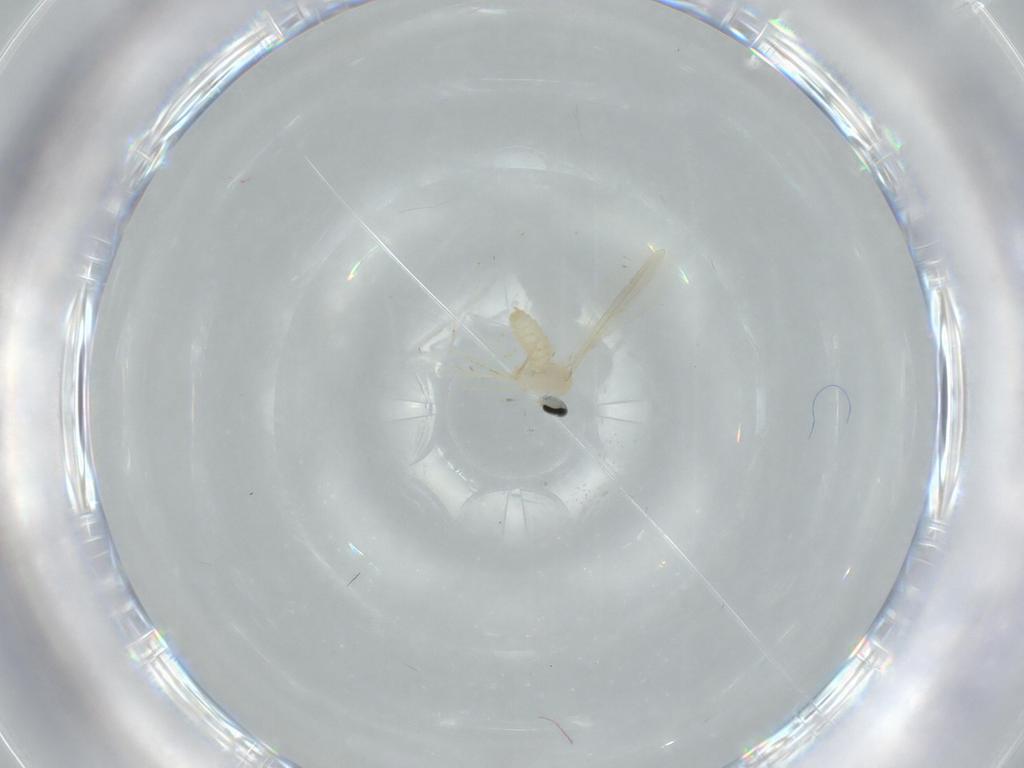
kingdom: Animalia
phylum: Arthropoda
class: Insecta
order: Diptera
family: Cecidomyiidae
